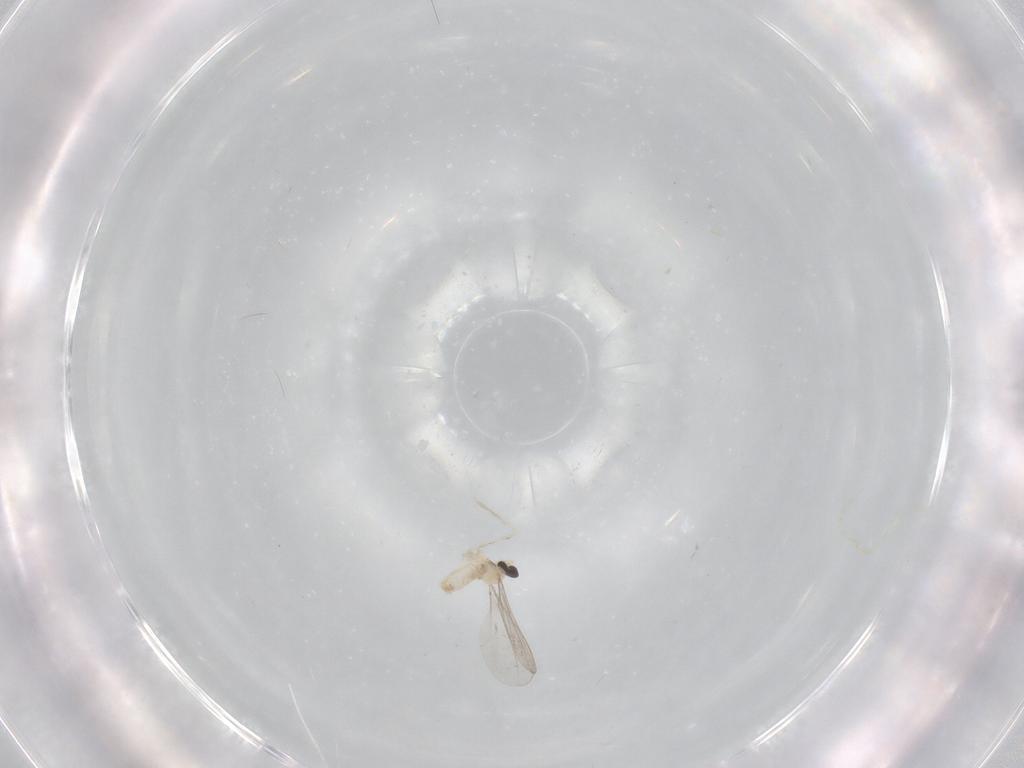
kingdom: Animalia
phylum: Arthropoda
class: Insecta
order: Diptera
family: Cecidomyiidae
